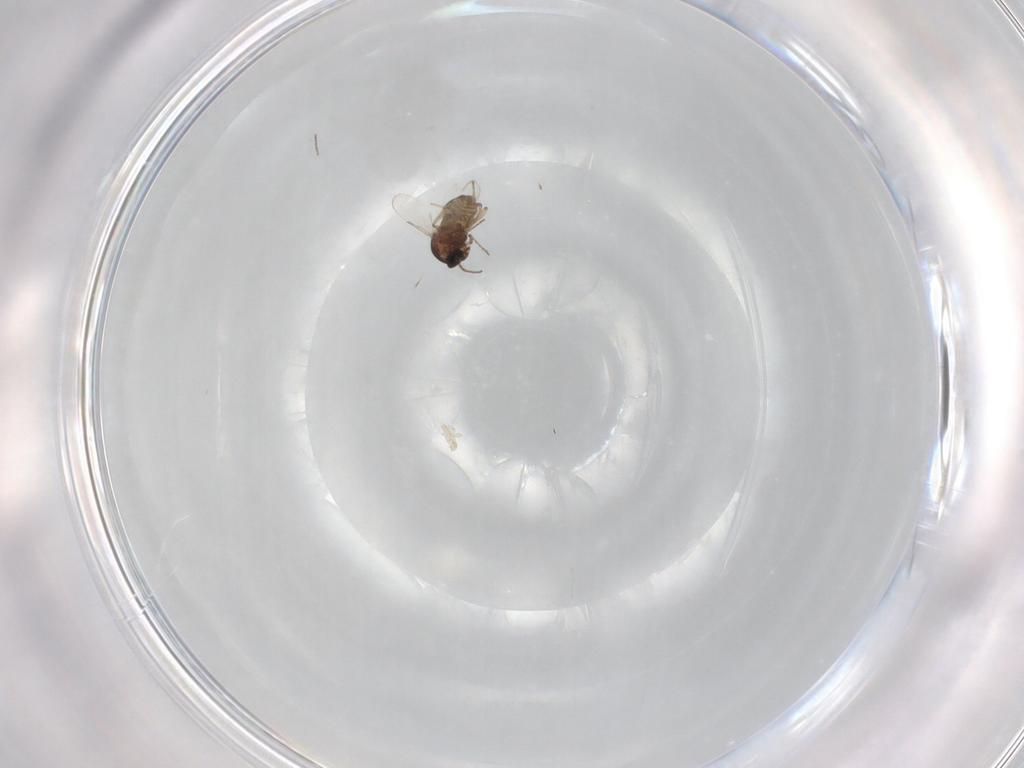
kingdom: Animalia
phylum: Arthropoda
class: Insecta
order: Diptera
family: Ceratopogonidae
